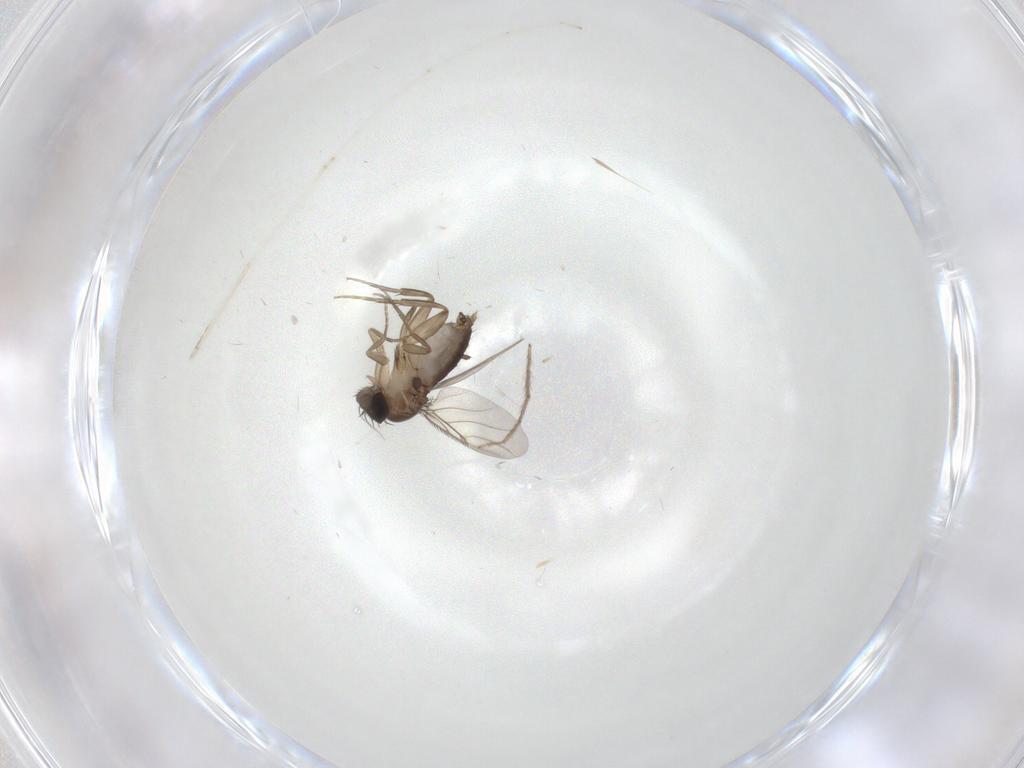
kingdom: Animalia
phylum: Arthropoda
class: Insecta
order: Diptera
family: Phoridae
